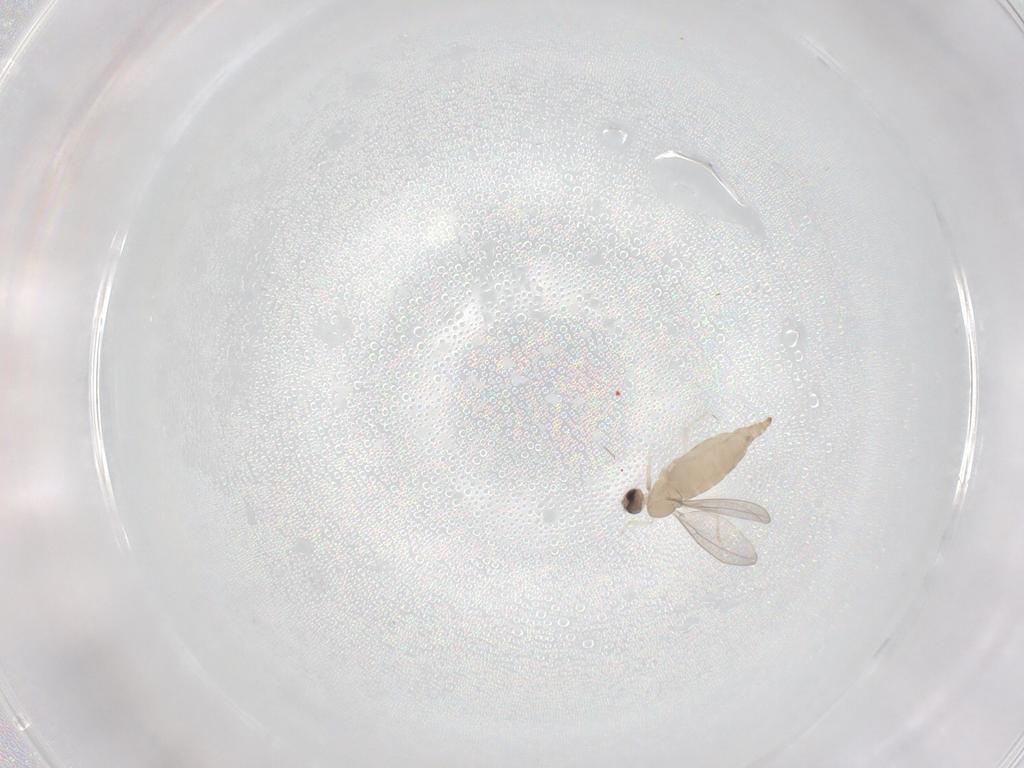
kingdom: Animalia
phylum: Arthropoda
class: Insecta
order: Diptera
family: Cecidomyiidae
